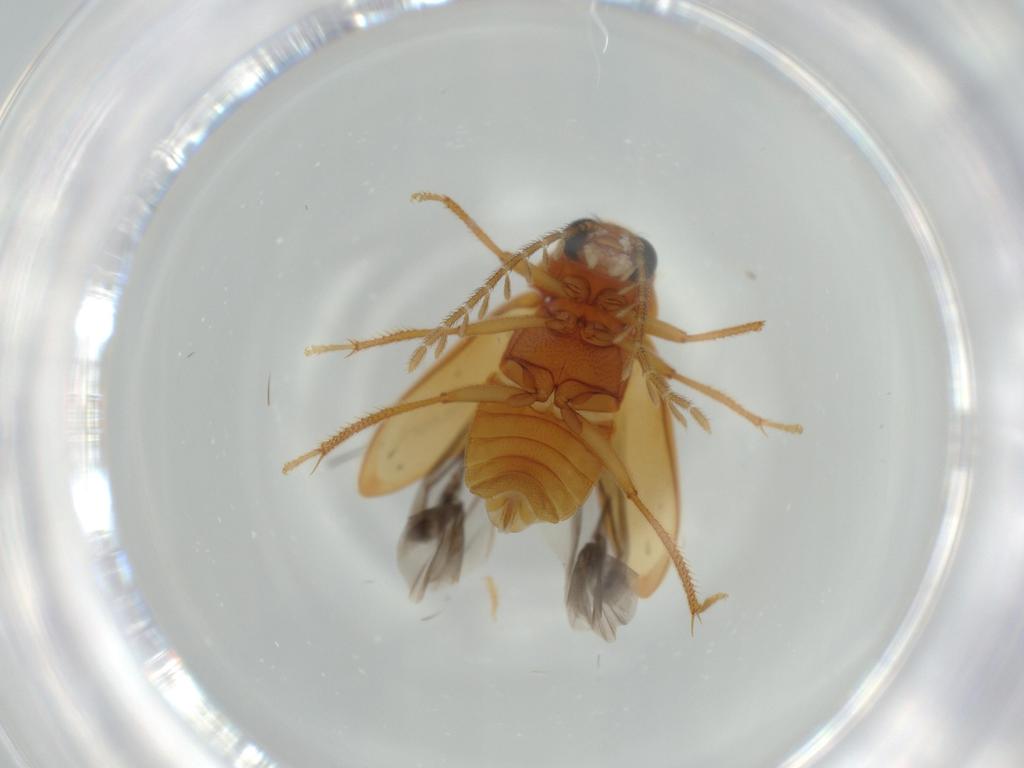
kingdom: Animalia
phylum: Arthropoda
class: Insecta
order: Coleoptera
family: Ptilodactylidae
